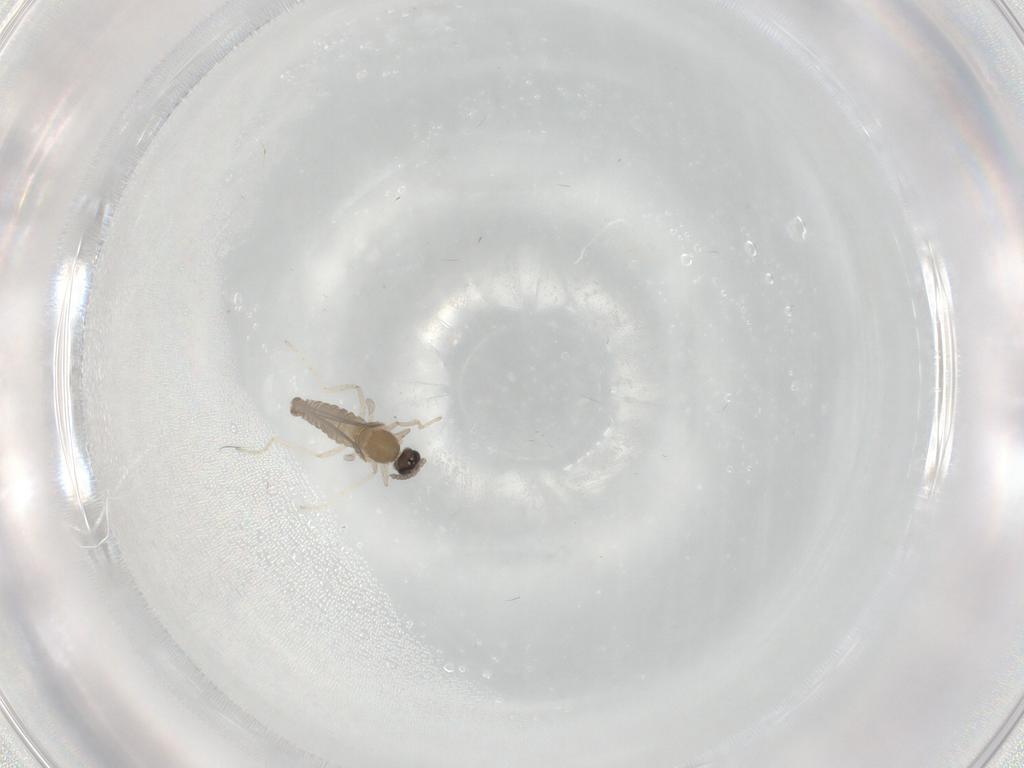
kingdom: Animalia
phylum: Arthropoda
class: Insecta
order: Diptera
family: Cecidomyiidae
